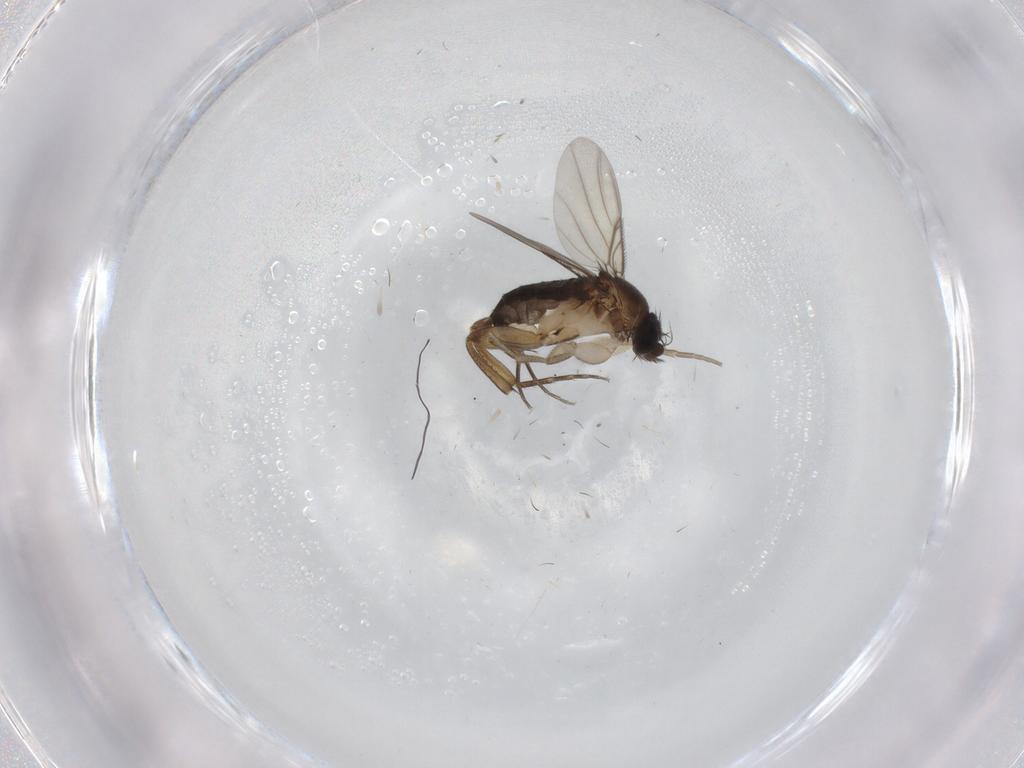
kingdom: Animalia
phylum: Arthropoda
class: Insecta
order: Diptera
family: Phoridae
